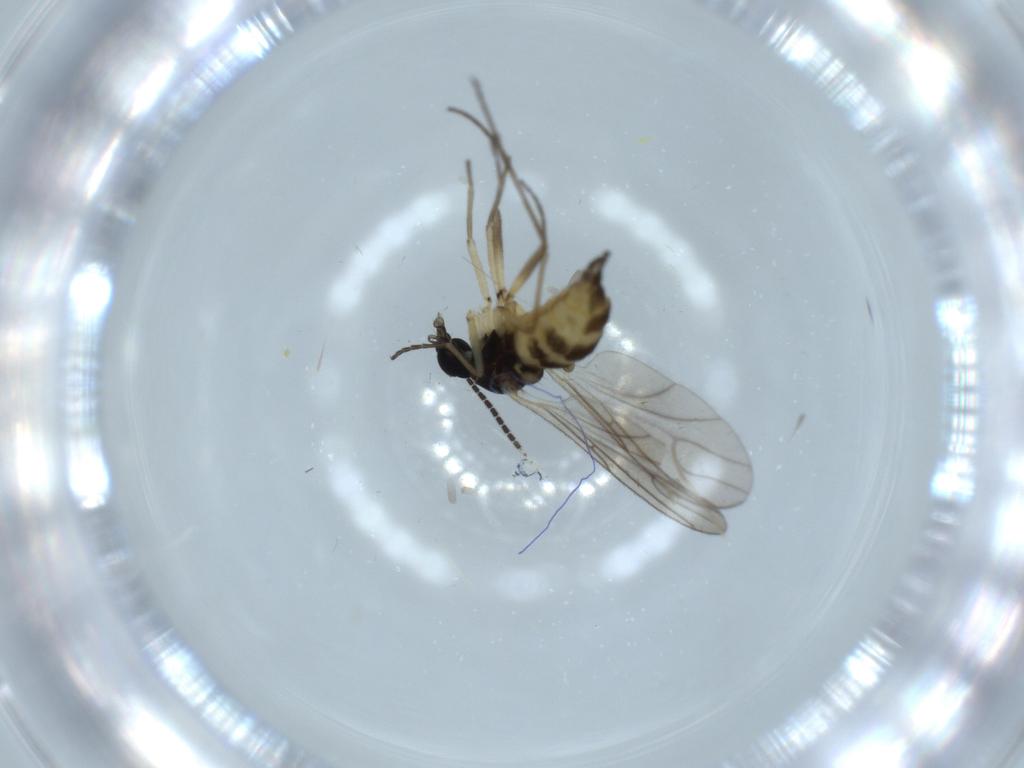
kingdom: Animalia
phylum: Arthropoda
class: Insecta
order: Diptera
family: Sciaridae
